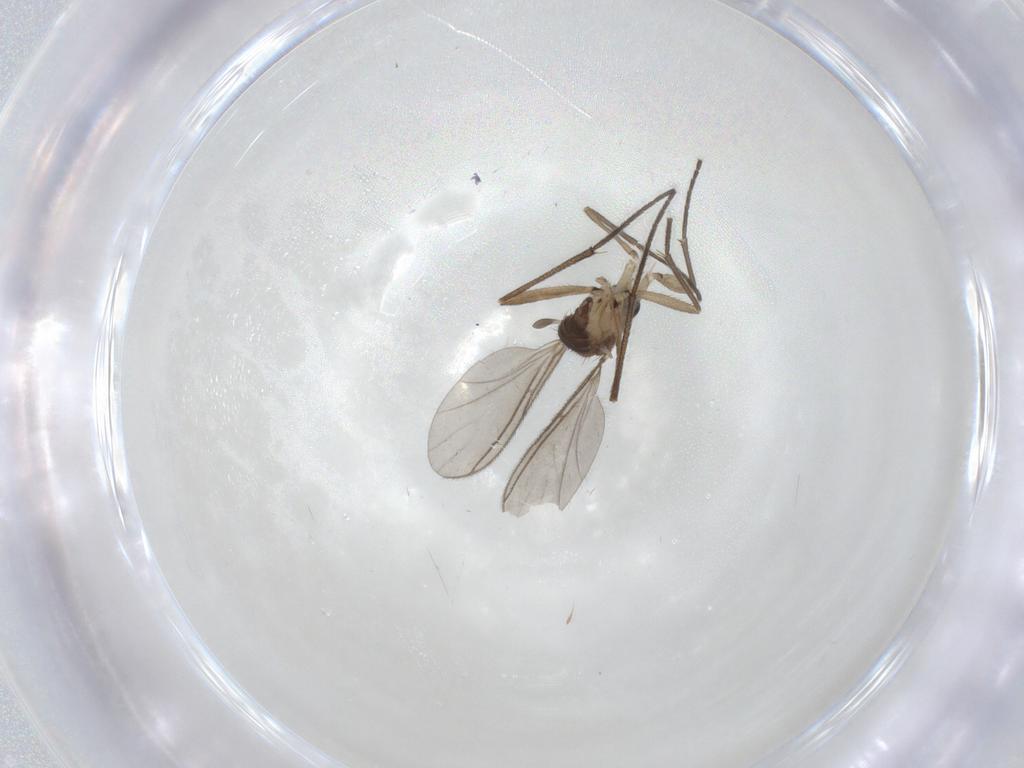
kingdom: Animalia
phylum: Arthropoda
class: Insecta
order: Diptera
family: Sciaridae
